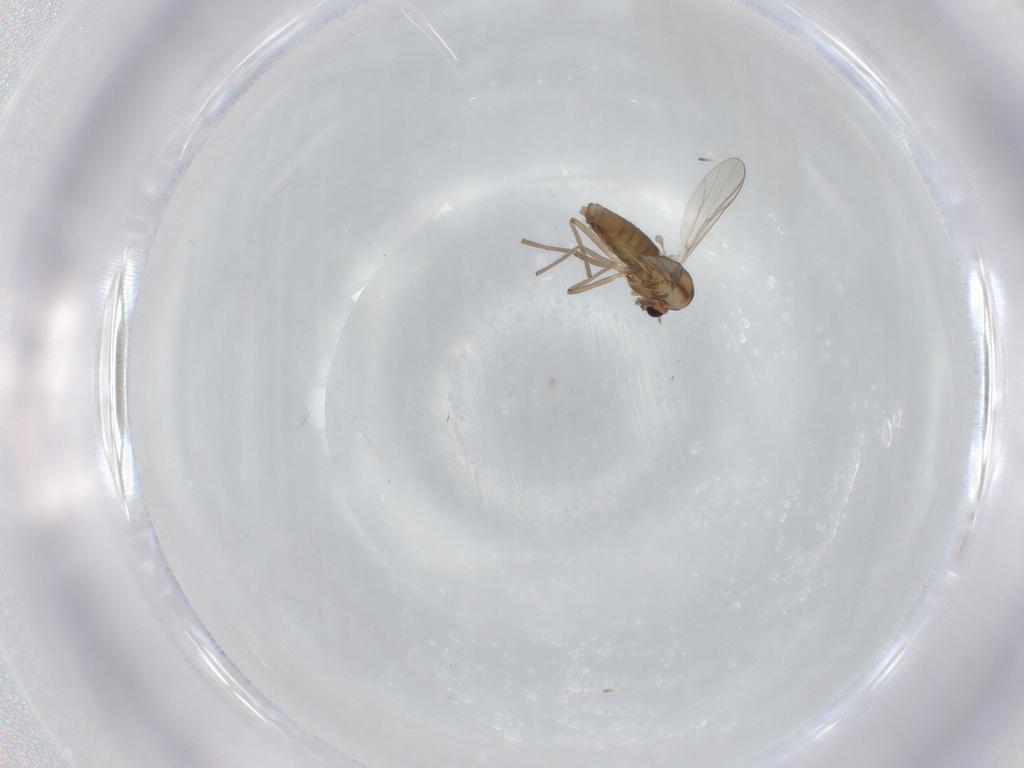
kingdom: Animalia
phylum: Arthropoda
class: Insecta
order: Diptera
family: Chironomidae
